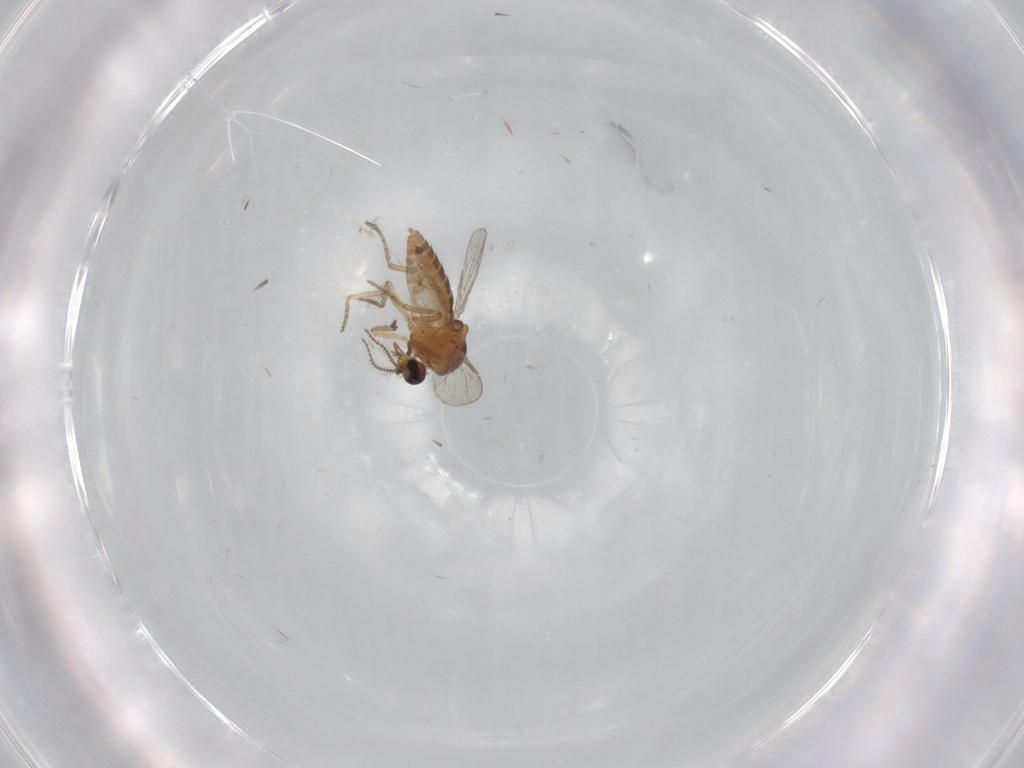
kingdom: Animalia
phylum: Arthropoda
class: Insecta
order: Diptera
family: Ceratopogonidae
